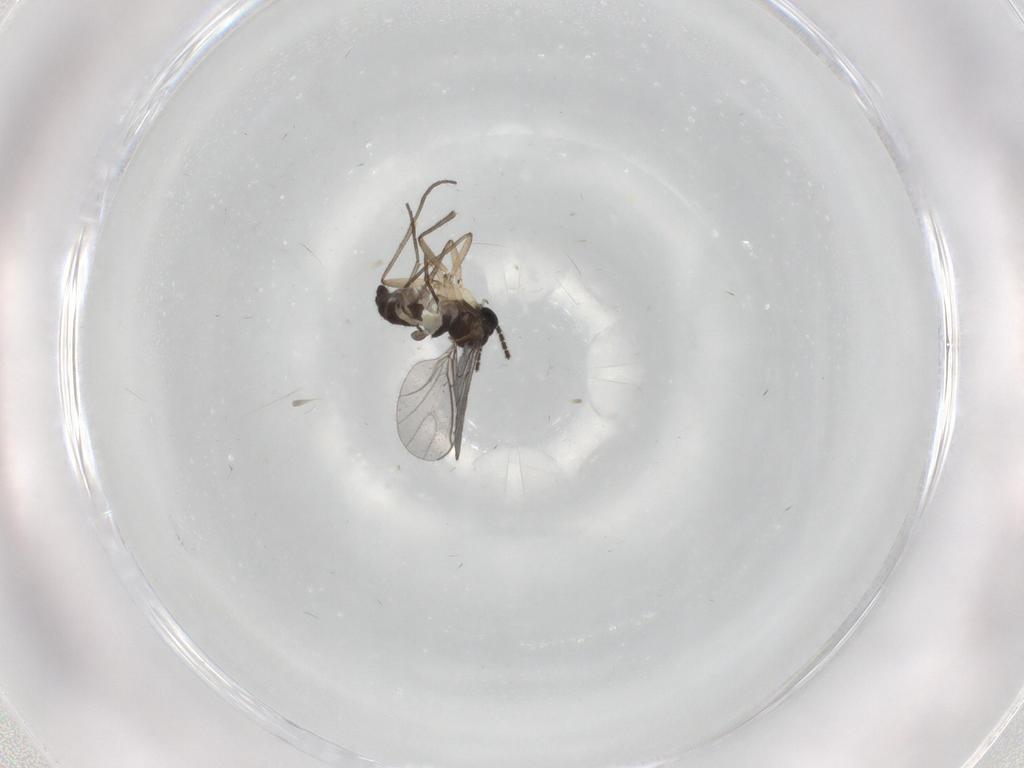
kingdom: Animalia
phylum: Arthropoda
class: Insecta
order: Diptera
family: Sciaridae
